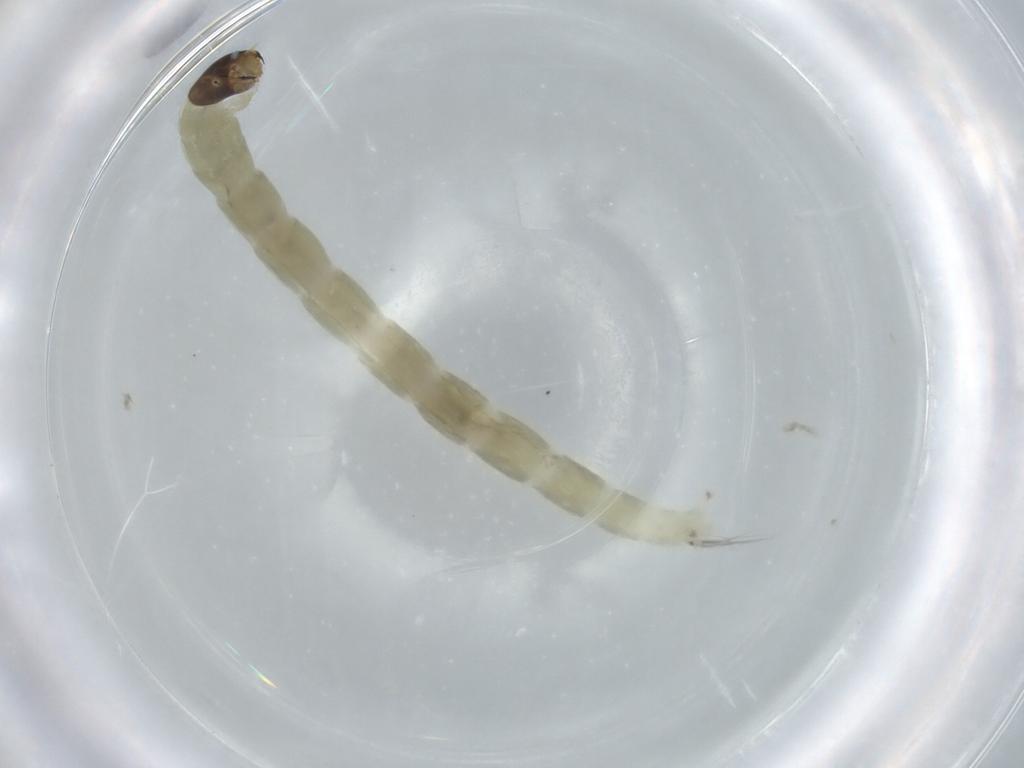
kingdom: Animalia
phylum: Arthropoda
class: Insecta
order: Diptera
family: Chironomidae
